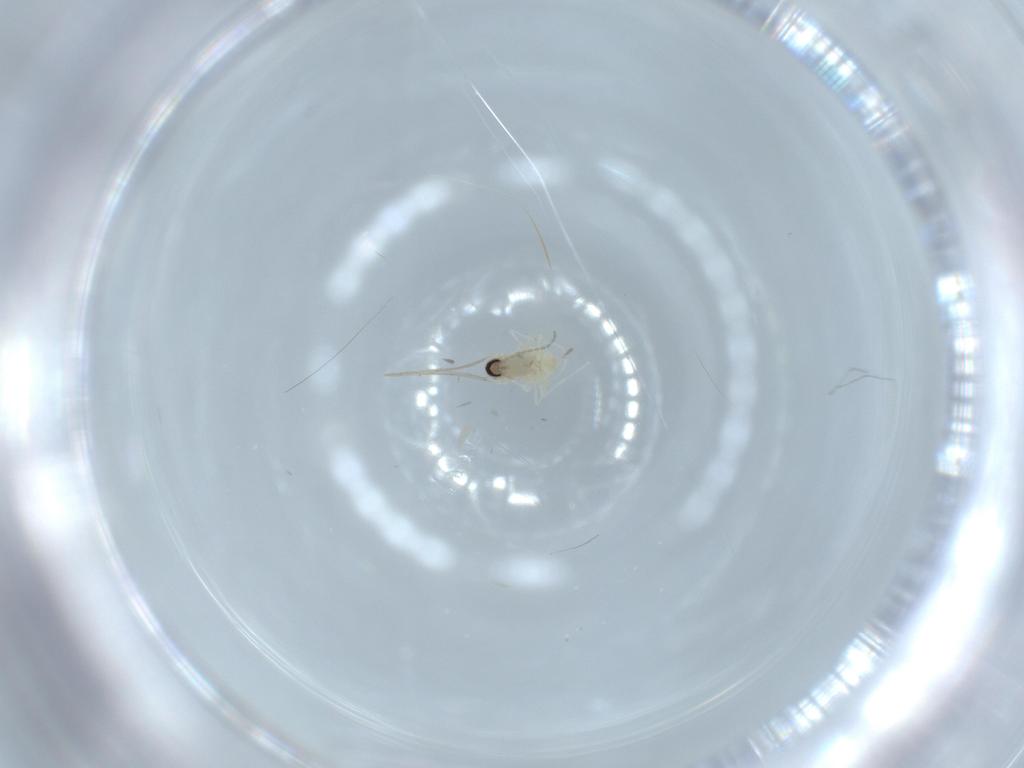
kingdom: Animalia
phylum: Arthropoda
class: Insecta
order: Diptera
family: Cecidomyiidae
